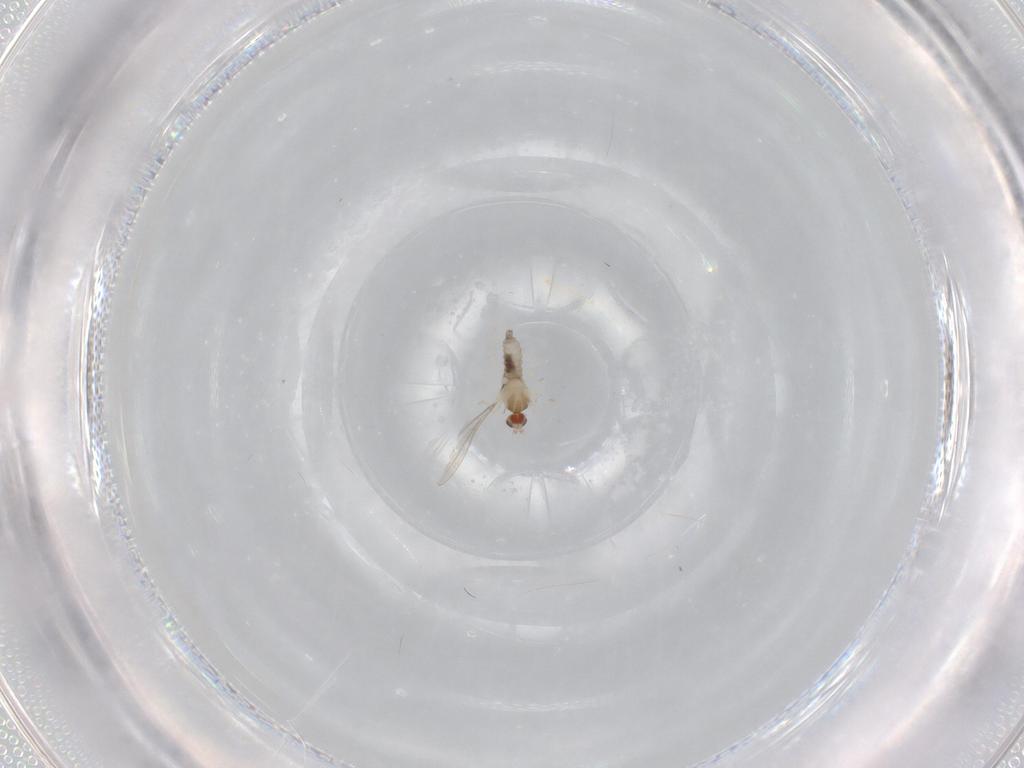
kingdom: Animalia
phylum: Arthropoda
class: Insecta
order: Diptera
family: Cecidomyiidae
